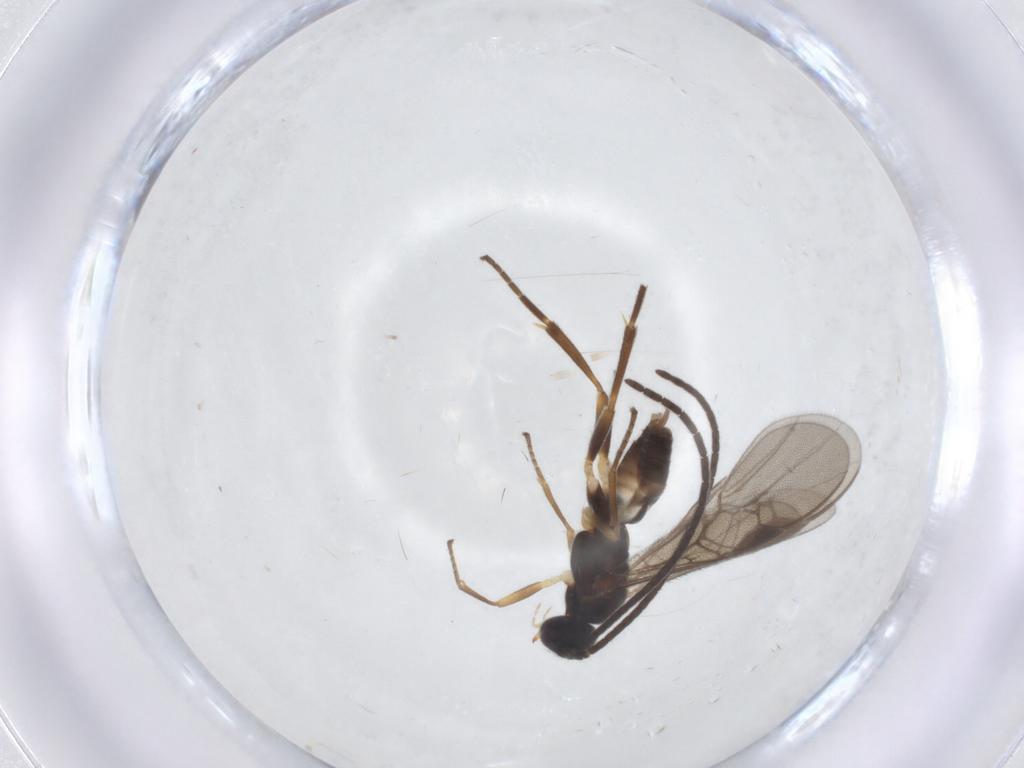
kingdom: Animalia
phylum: Arthropoda
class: Insecta
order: Hymenoptera
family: Braconidae
